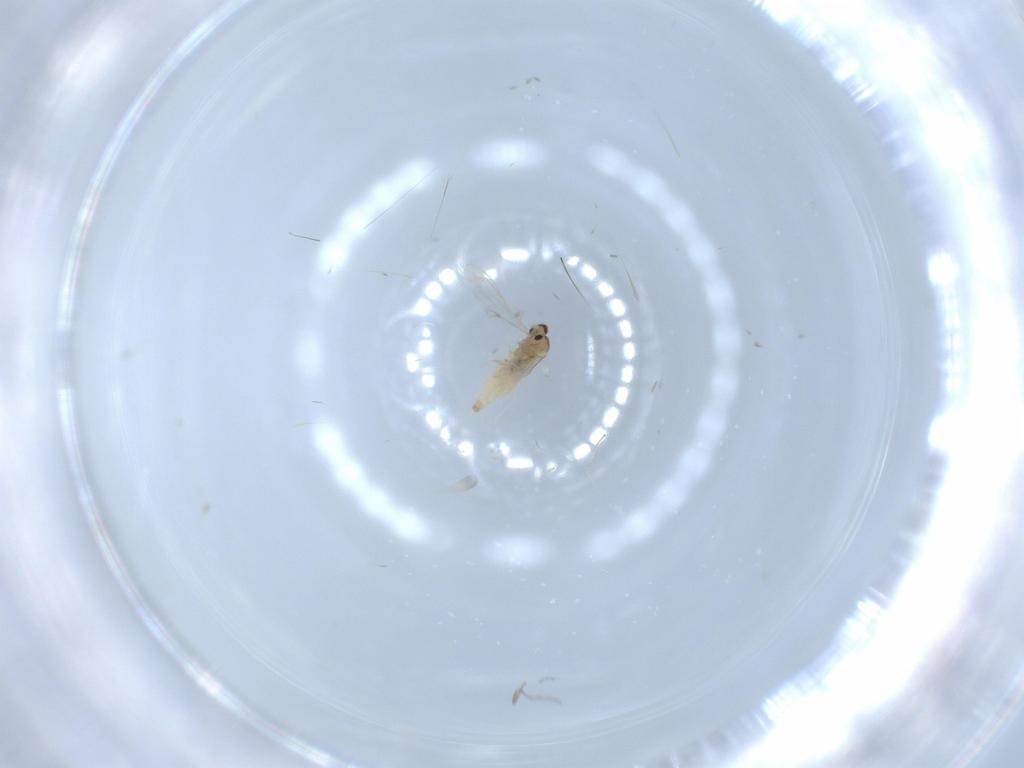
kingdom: Animalia
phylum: Arthropoda
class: Insecta
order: Diptera
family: Cecidomyiidae
